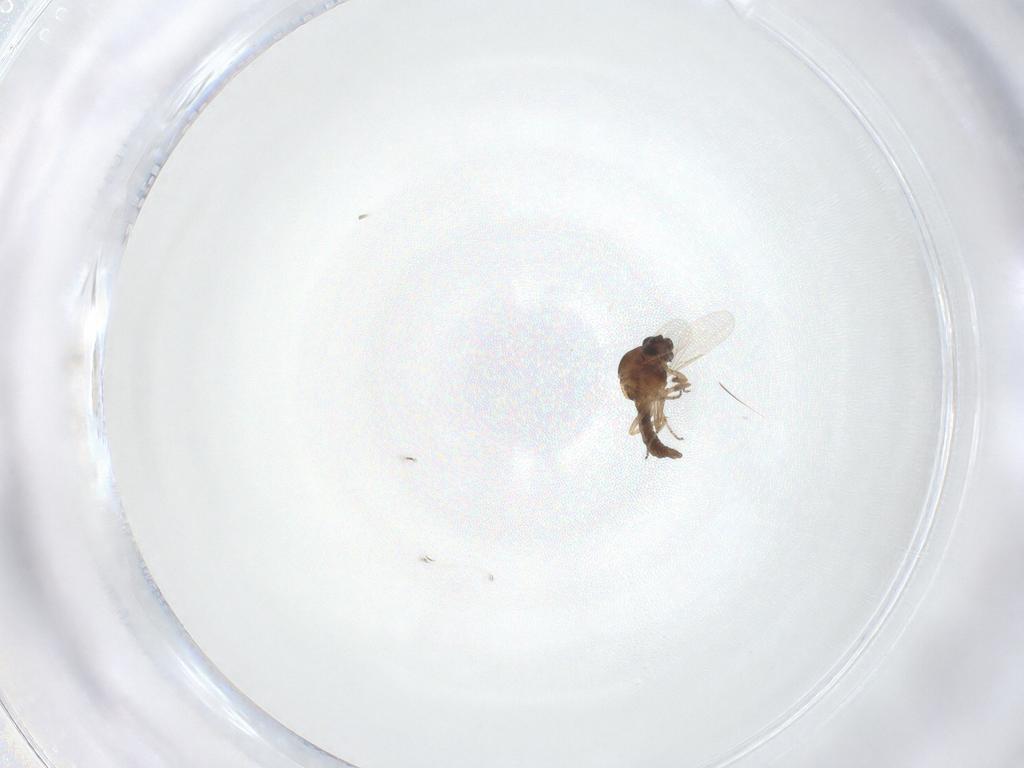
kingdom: Animalia
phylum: Arthropoda
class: Insecta
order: Diptera
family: Ceratopogonidae
